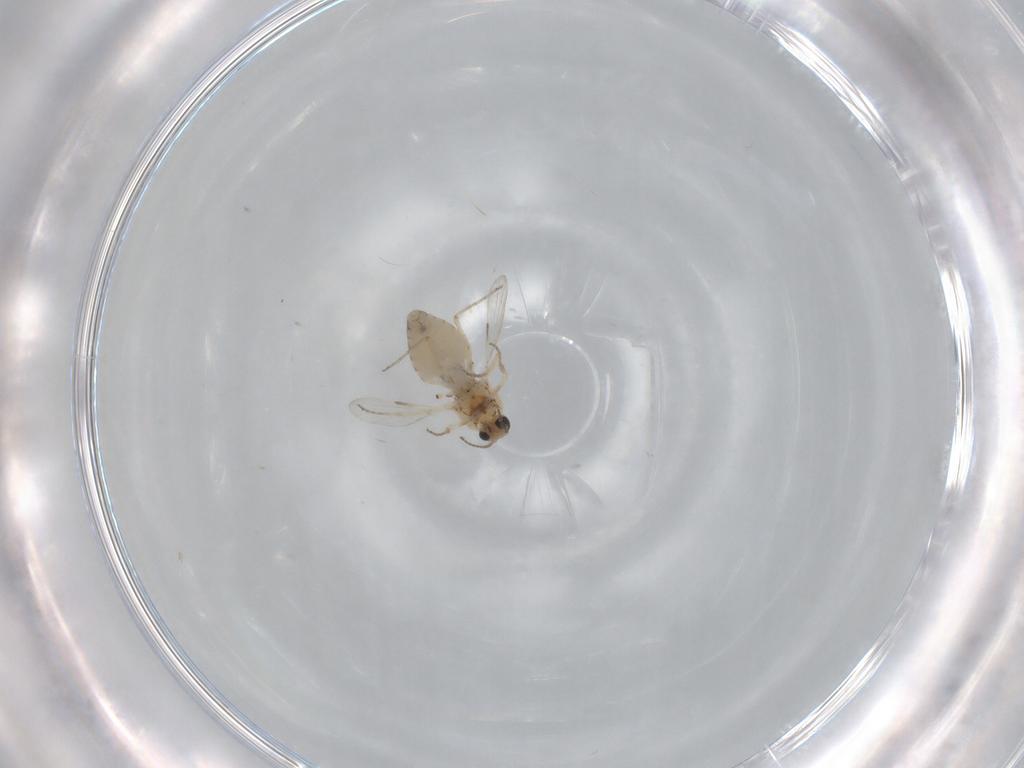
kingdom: Animalia
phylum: Arthropoda
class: Insecta
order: Diptera
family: Ceratopogonidae
